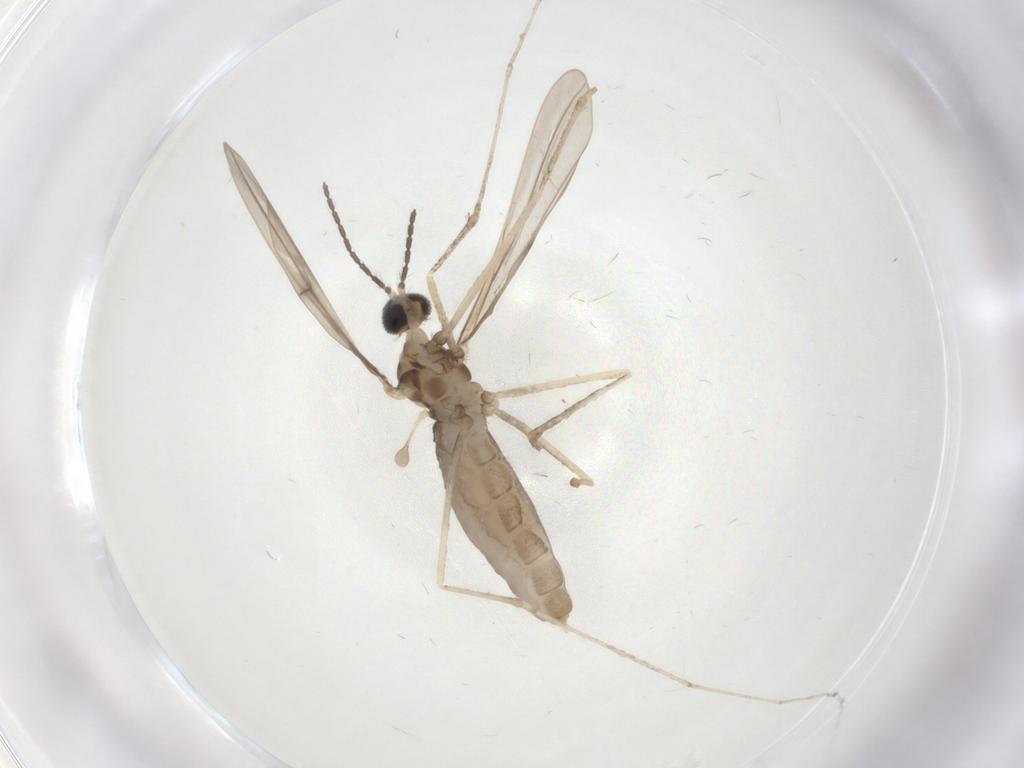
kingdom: Animalia
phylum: Arthropoda
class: Insecta
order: Diptera
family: Cecidomyiidae
